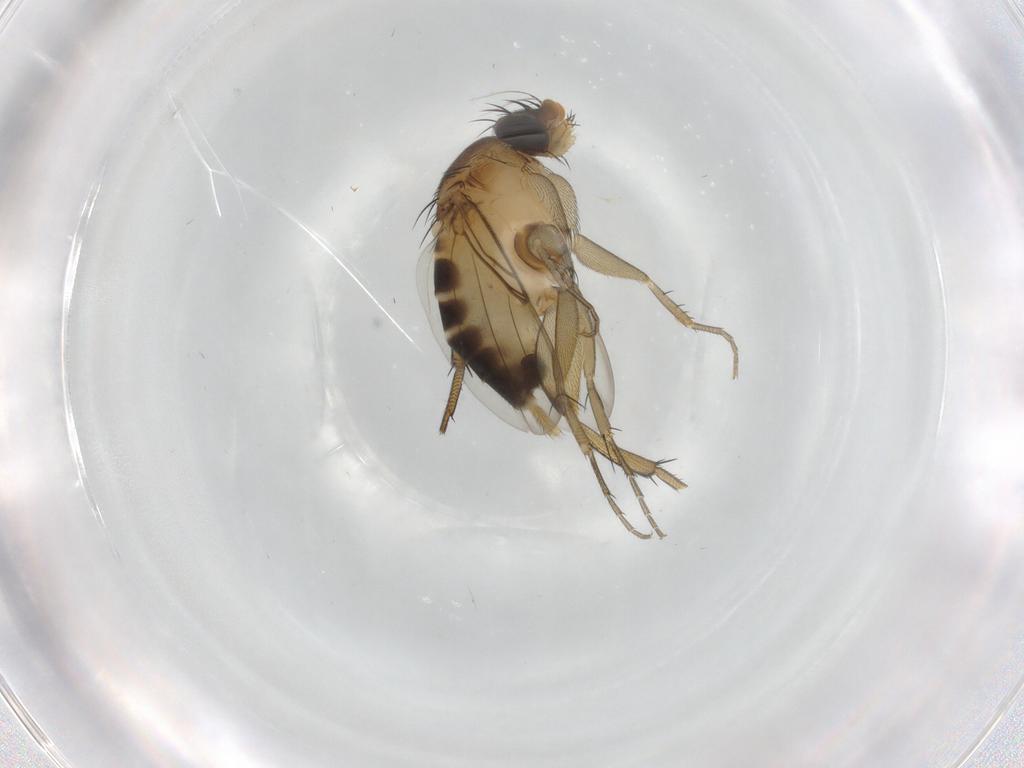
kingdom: Animalia
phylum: Arthropoda
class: Insecta
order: Diptera
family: Phoridae
